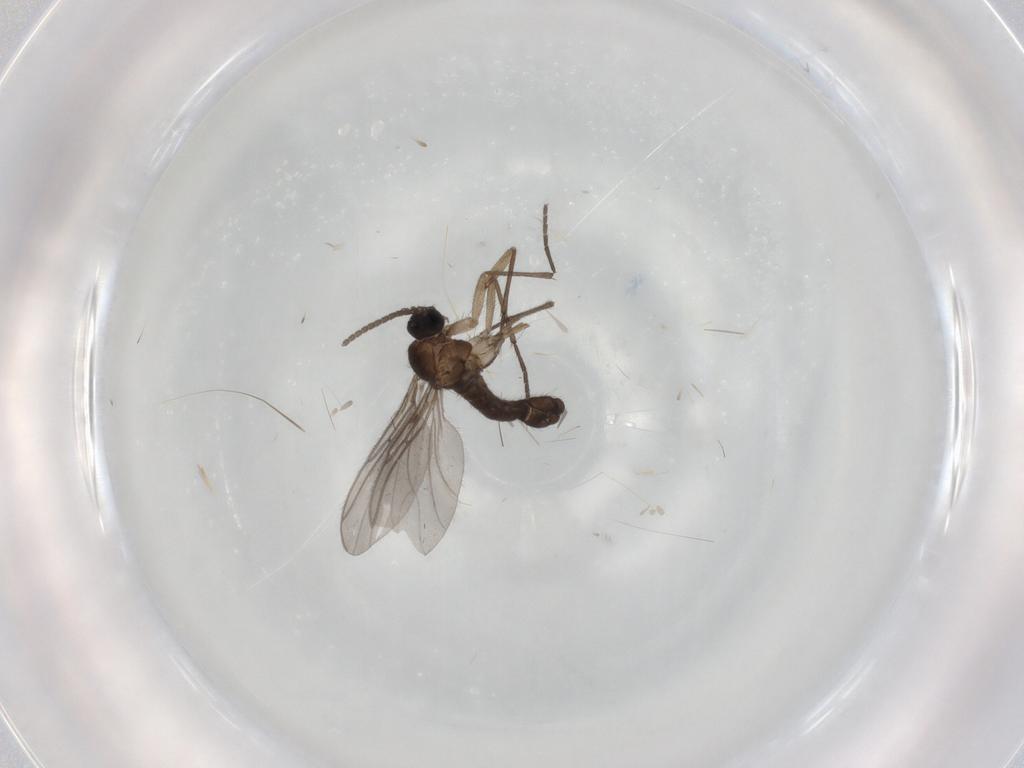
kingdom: Animalia
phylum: Arthropoda
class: Insecta
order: Diptera
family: Sciaridae
